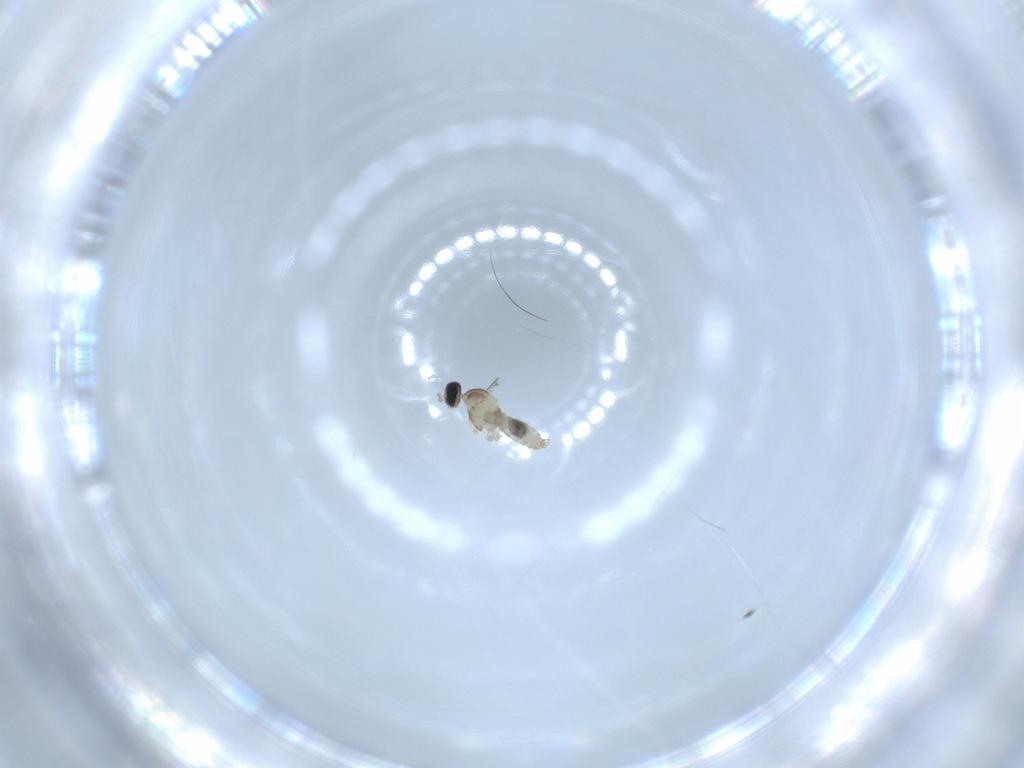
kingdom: Animalia
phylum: Arthropoda
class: Insecta
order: Diptera
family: Cecidomyiidae
